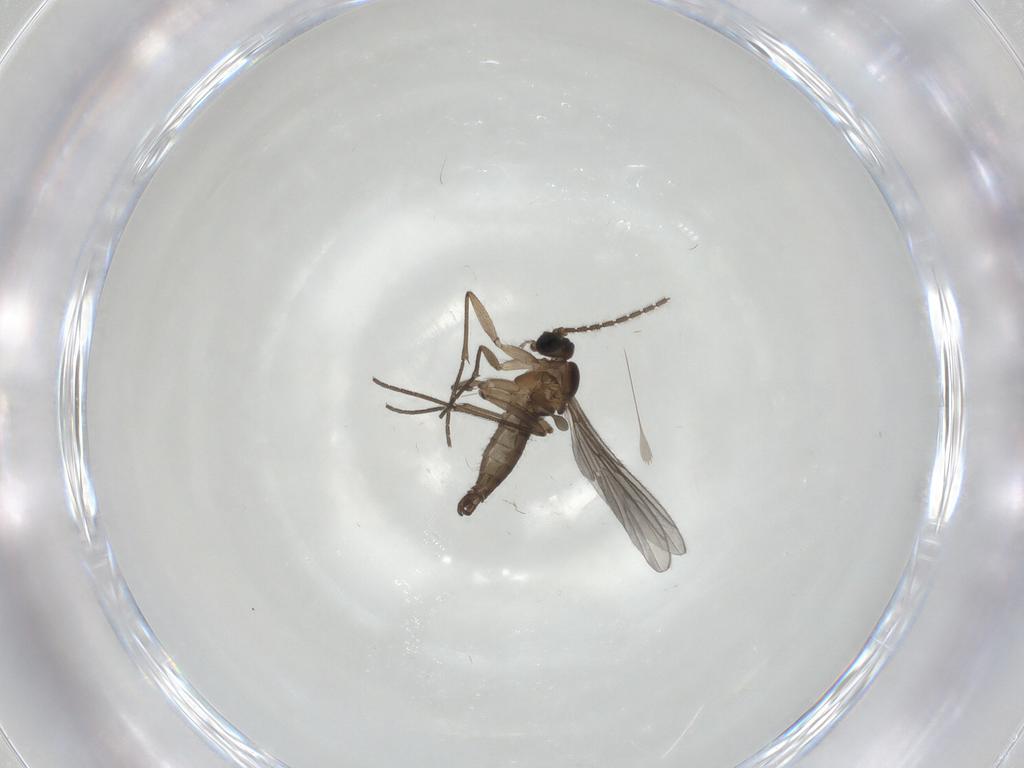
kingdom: Animalia
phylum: Arthropoda
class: Insecta
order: Diptera
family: Sciaridae
